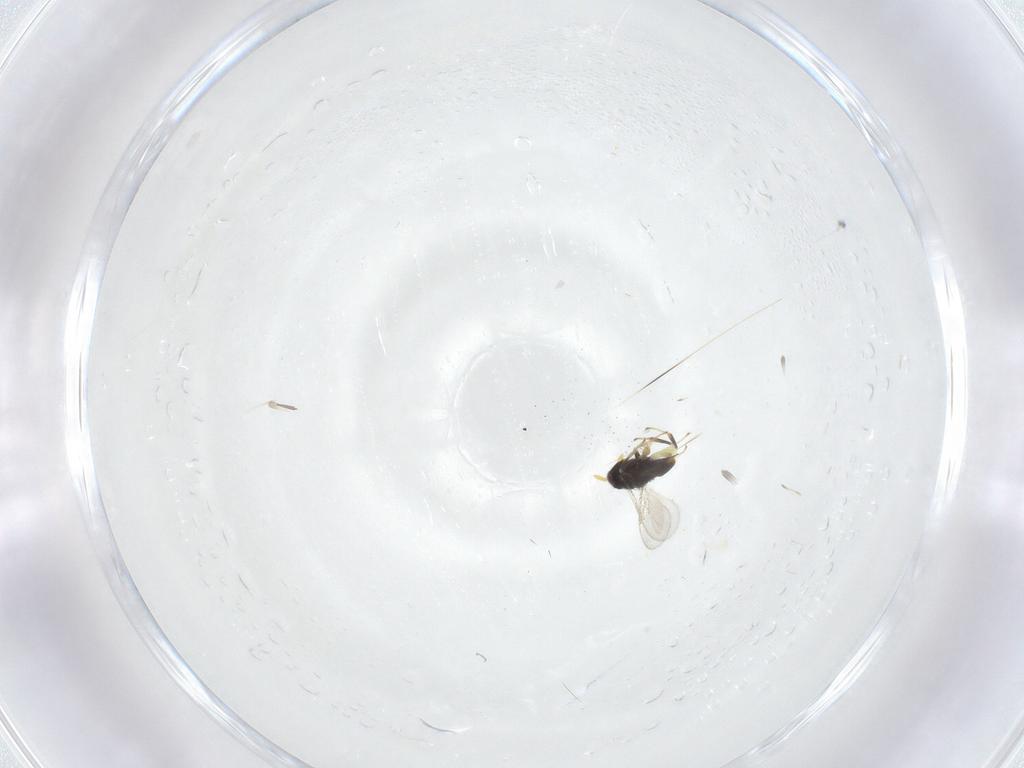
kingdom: Animalia
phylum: Arthropoda
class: Insecta
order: Hymenoptera
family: Aphelinidae
